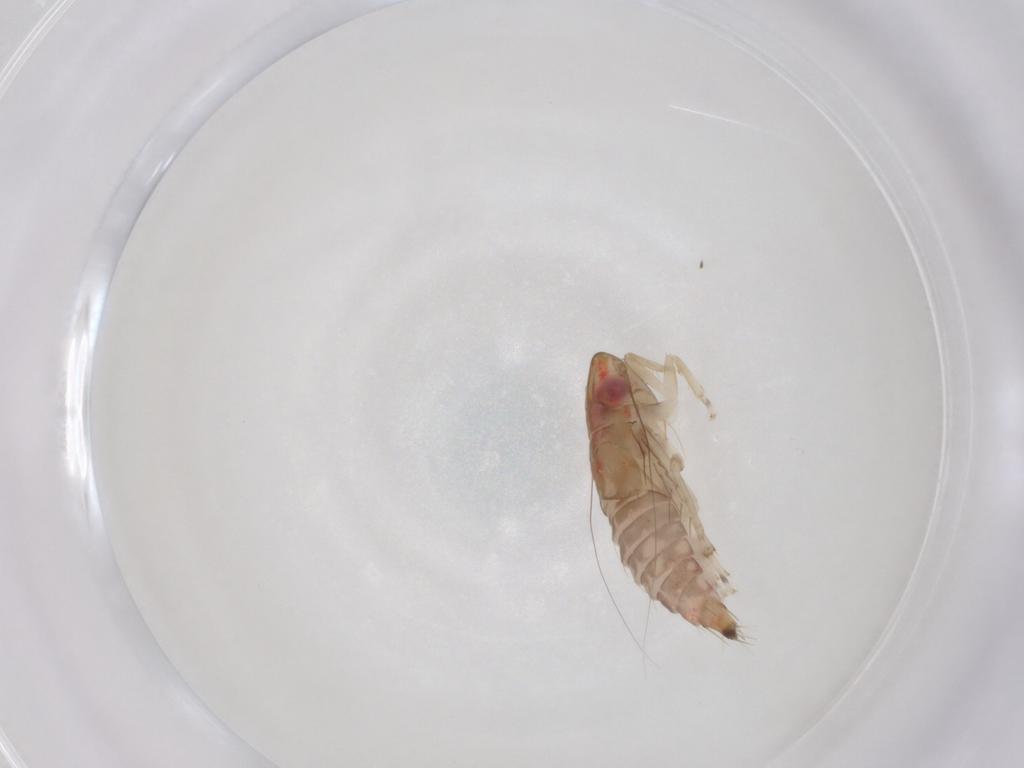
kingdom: Animalia
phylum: Arthropoda
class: Insecta
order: Hemiptera
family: Cicadellidae
